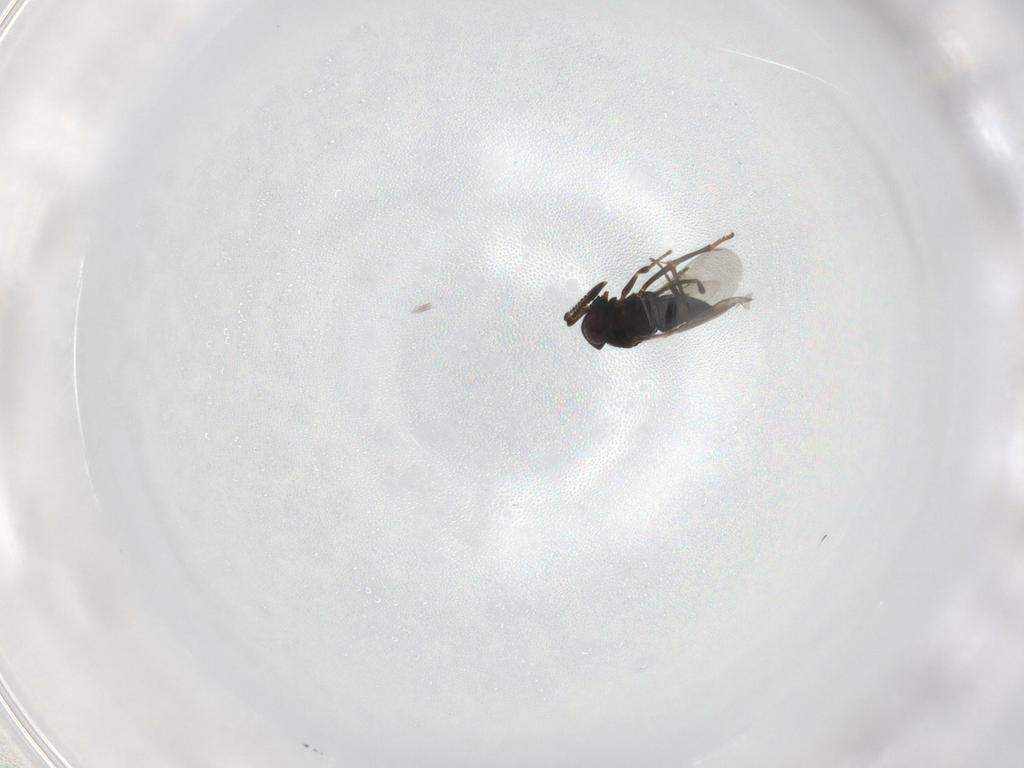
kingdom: Animalia
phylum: Arthropoda
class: Insecta
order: Hymenoptera
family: Encyrtidae
